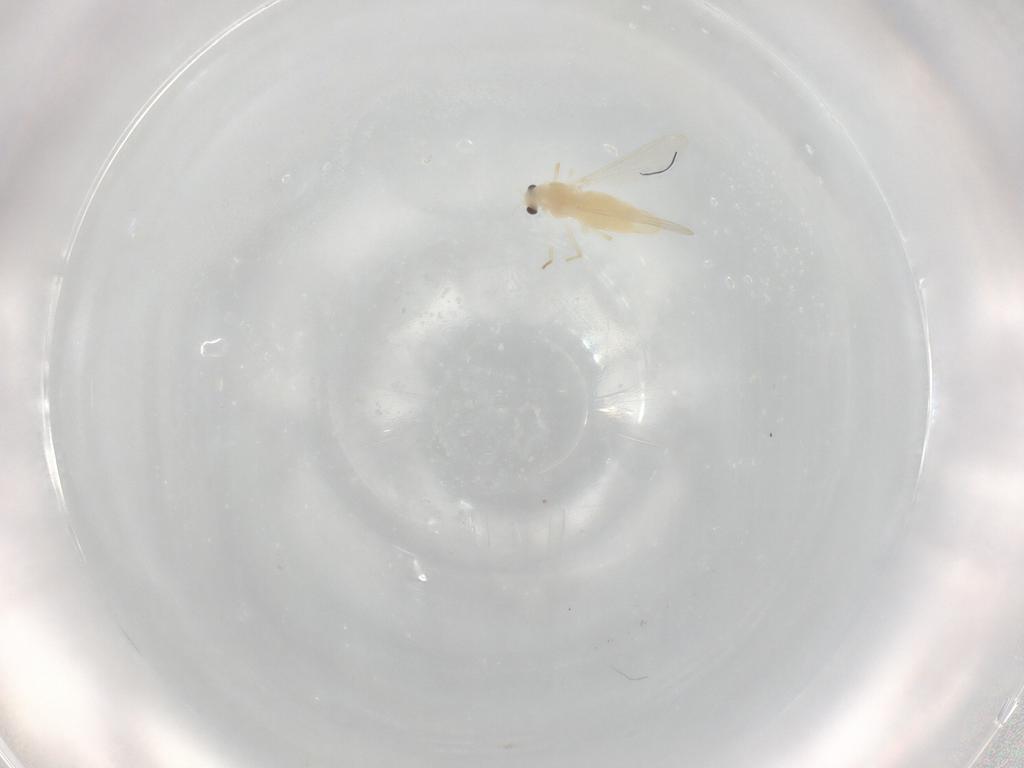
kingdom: Animalia
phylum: Arthropoda
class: Insecta
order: Diptera
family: Chironomidae
